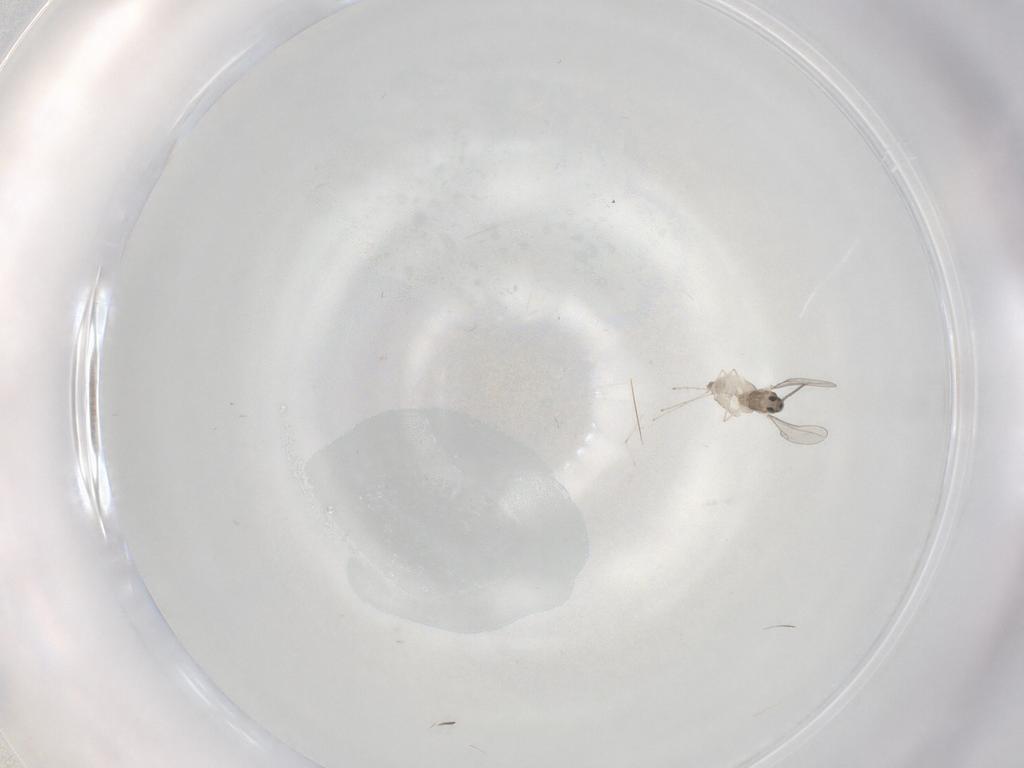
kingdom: Animalia
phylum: Arthropoda
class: Insecta
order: Diptera
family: Cecidomyiidae
